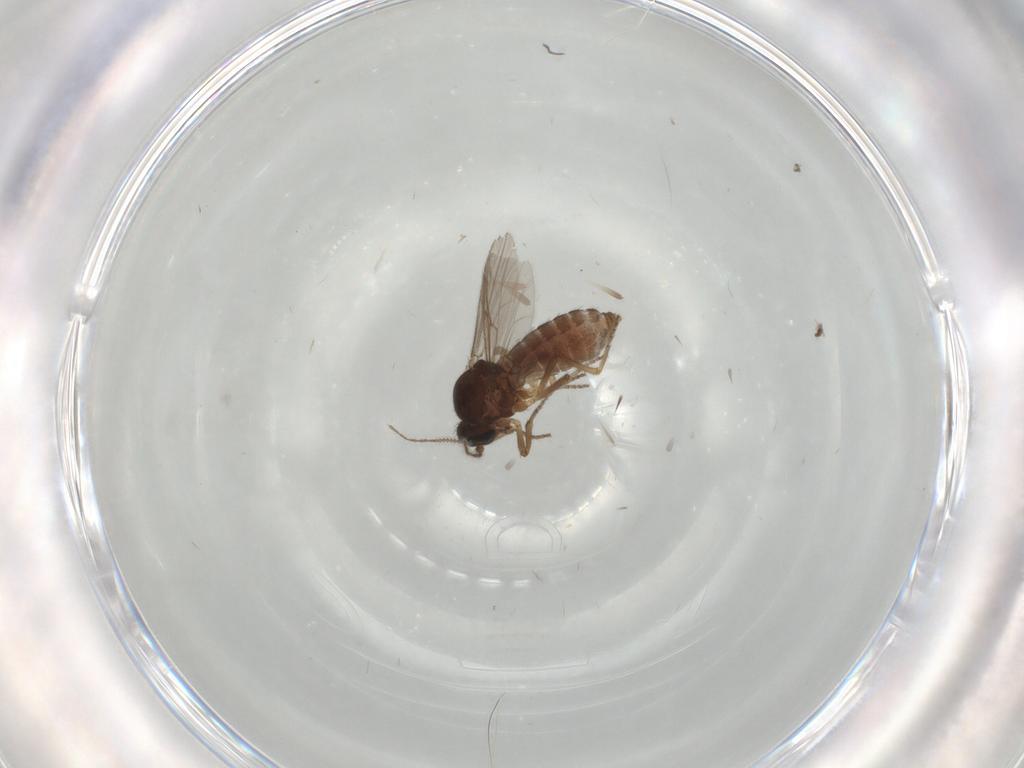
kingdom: Animalia
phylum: Arthropoda
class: Insecta
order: Diptera
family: Ceratopogonidae
